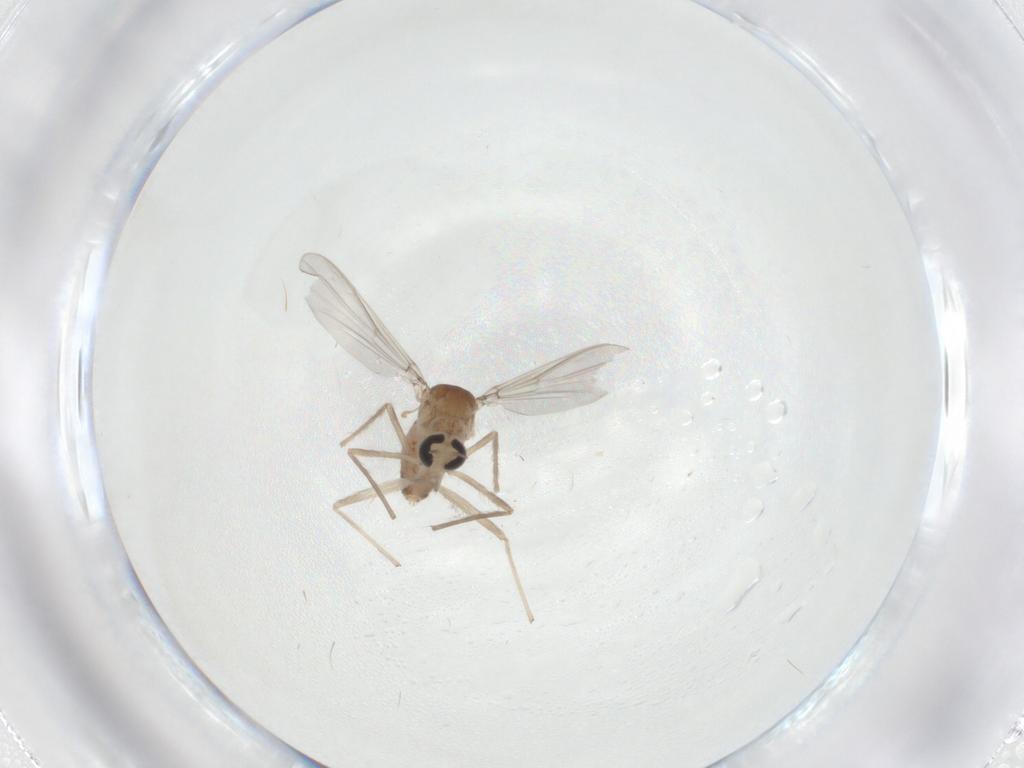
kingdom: Animalia
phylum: Arthropoda
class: Insecta
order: Diptera
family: Chironomidae
